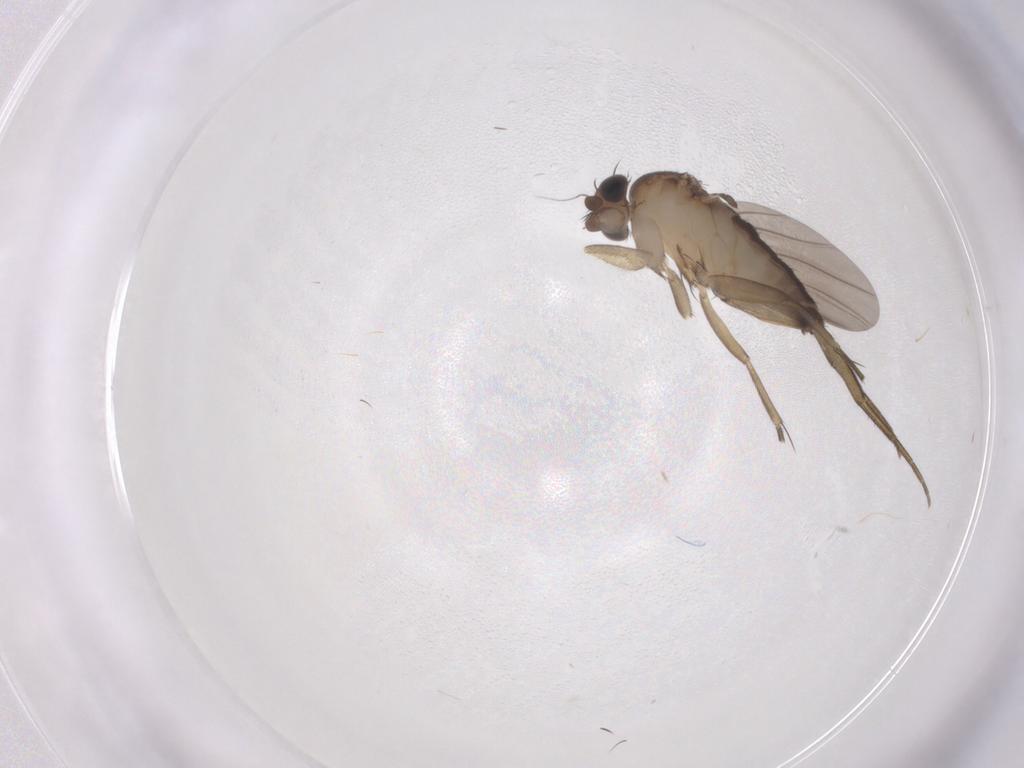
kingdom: Animalia
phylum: Arthropoda
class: Insecta
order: Diptera
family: Phoridae
